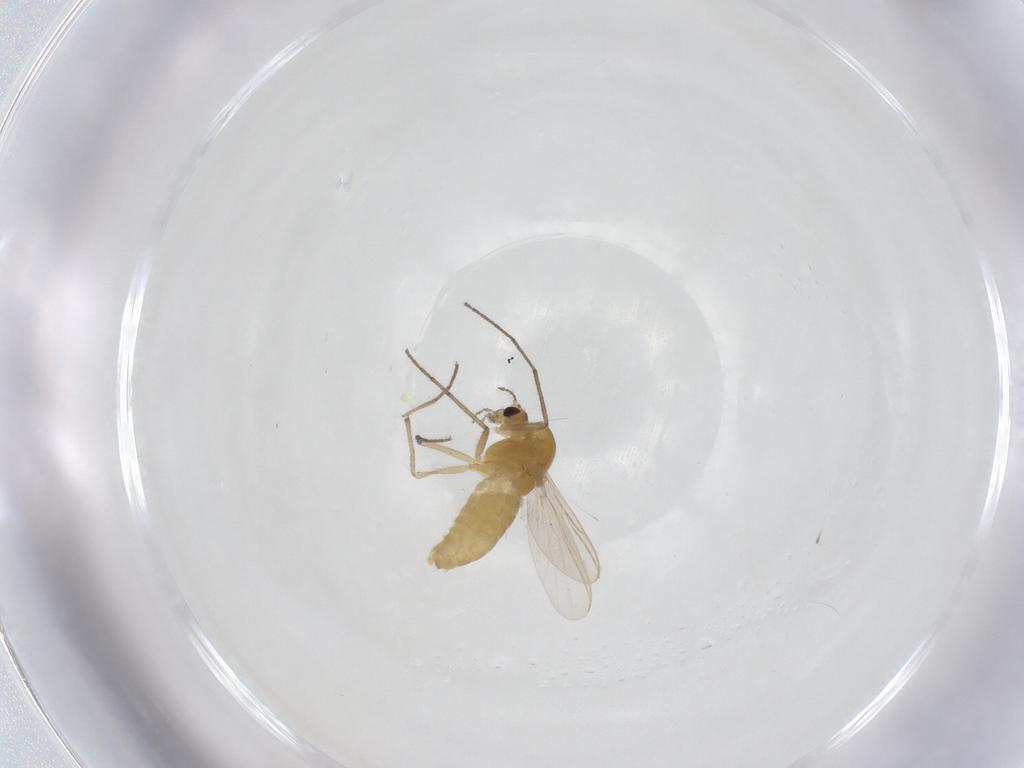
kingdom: Animalia
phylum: Arthropoda
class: Insecta
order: Diptera
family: Chironomidae
